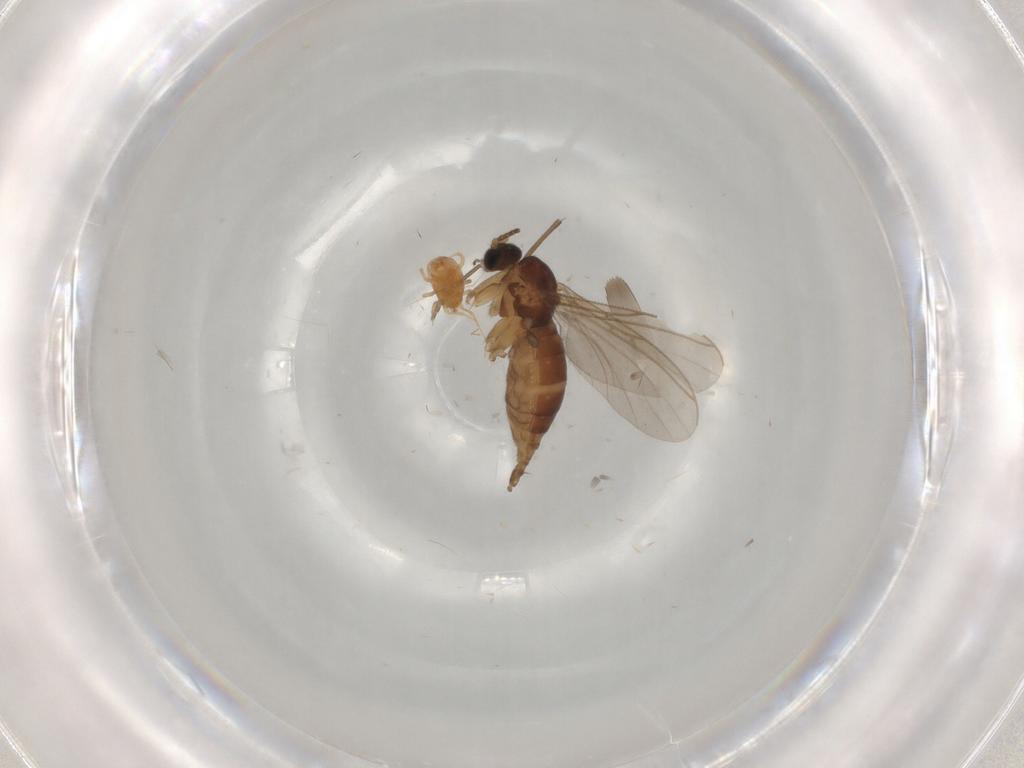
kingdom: Animalia
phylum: Arthropoda
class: Insecta
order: Diptera
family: Sciaridae
